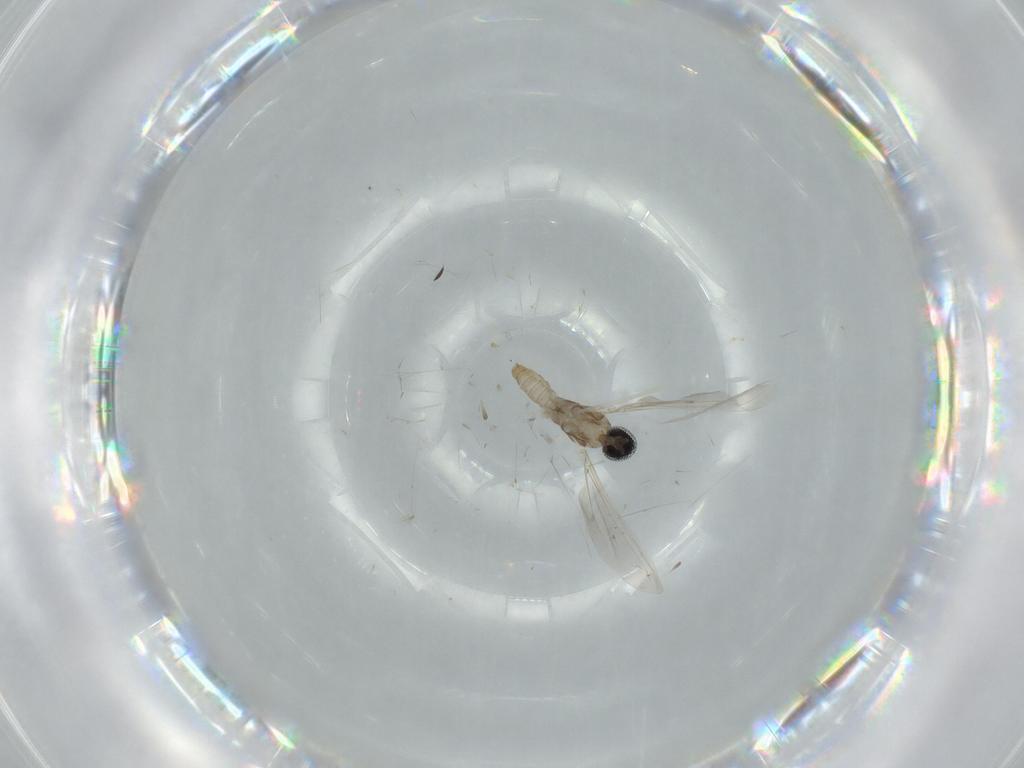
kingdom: Animalia
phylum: Arthropoda
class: Insecta
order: Diptera
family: Cecidomyiidae
